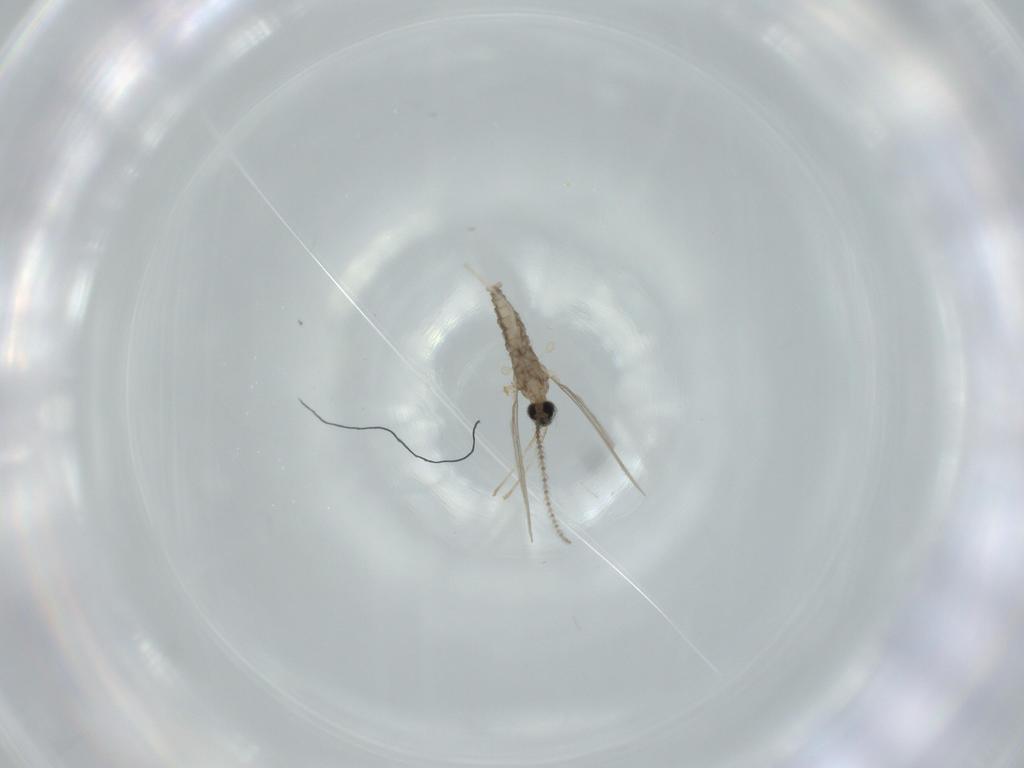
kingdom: Animalia
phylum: Arthropoda
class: Insecta
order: Diptera
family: Cecidomyiidae
